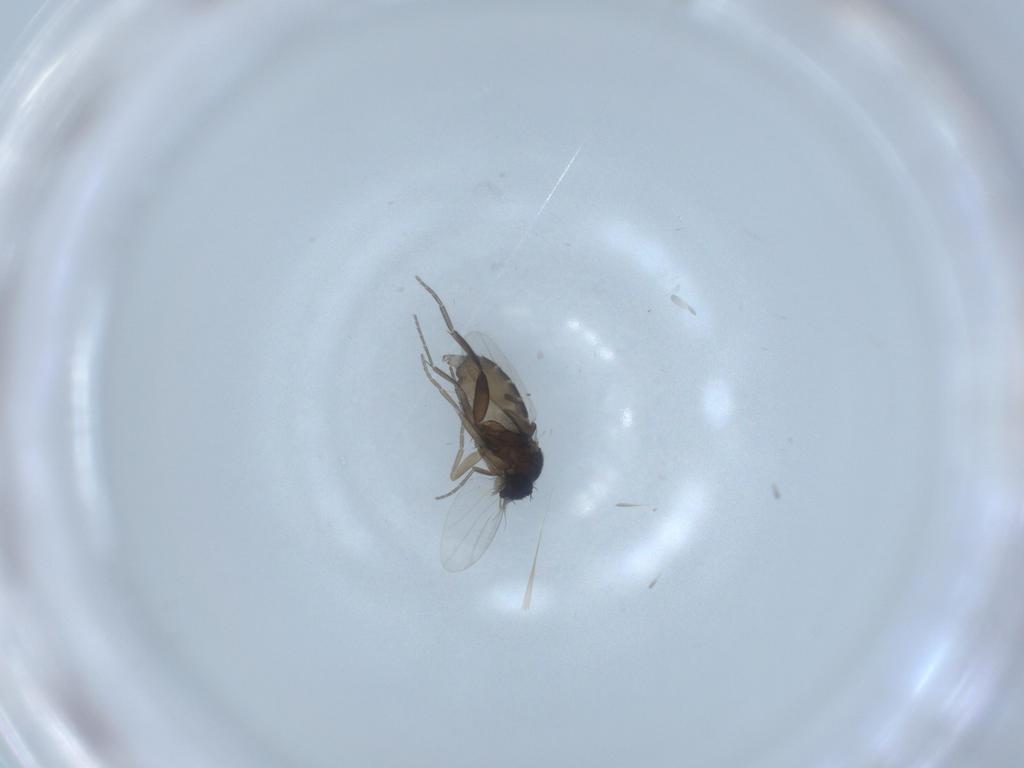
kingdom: Animalia
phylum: Arthropoda
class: Insecta
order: Diptera
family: Phoridae
